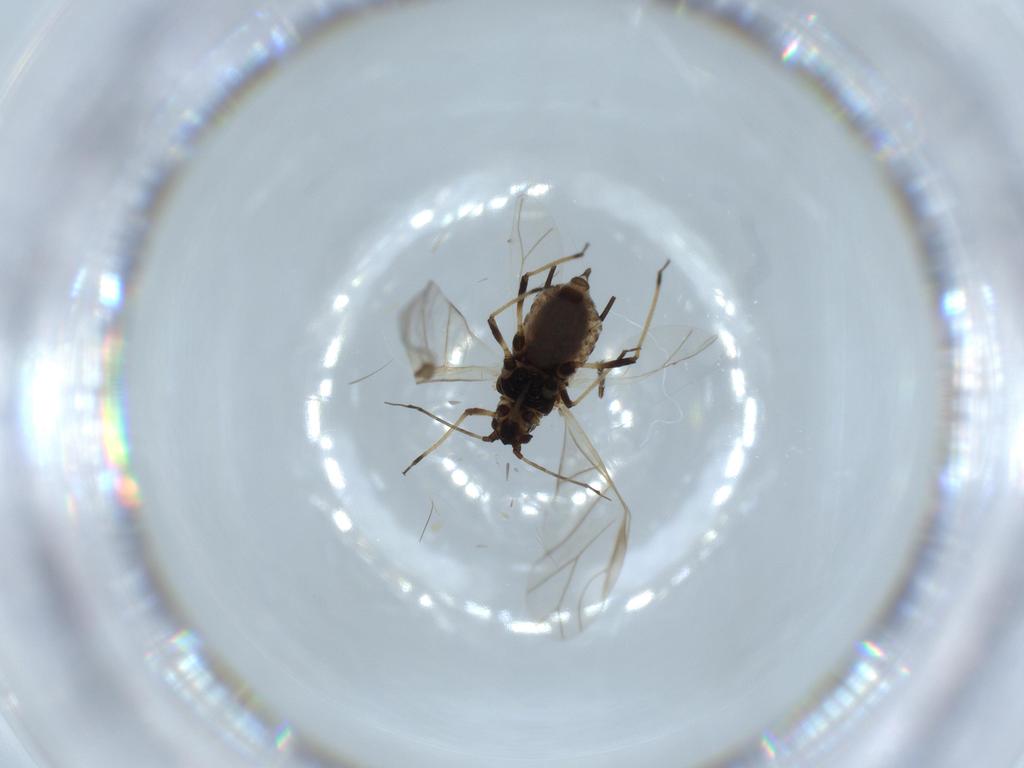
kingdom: Animalia
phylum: Arthropoda
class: Insecta
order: Hemiptera
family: Aphididae
